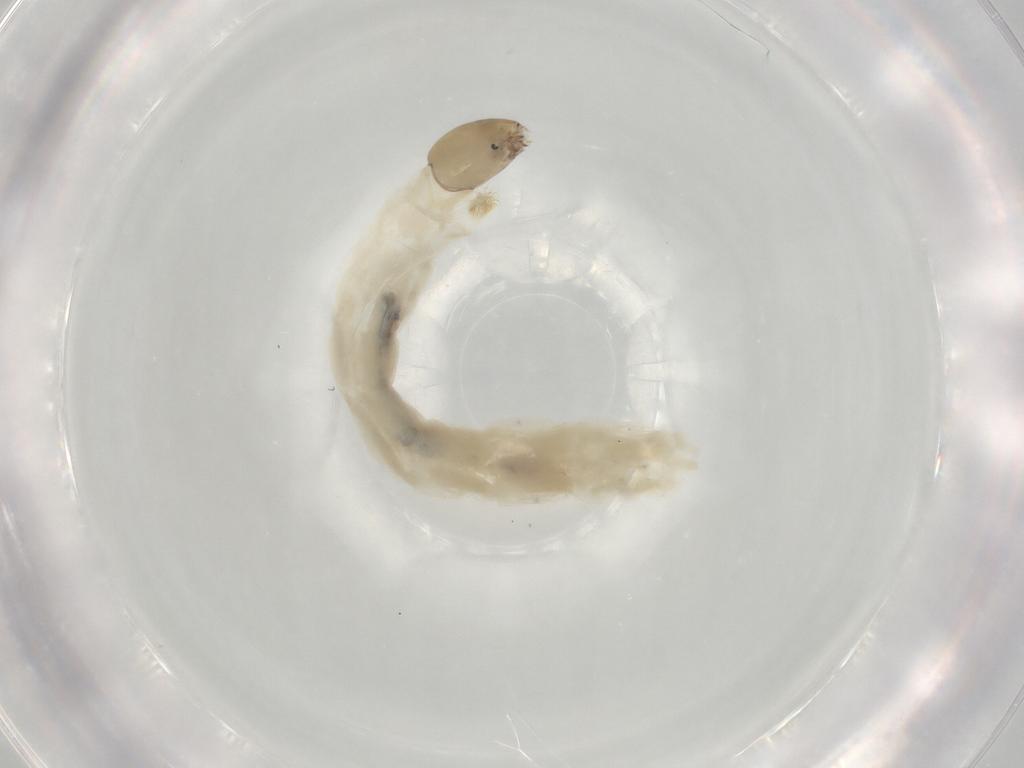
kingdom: Animalia
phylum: Arthropoda
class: Insecta
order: Diptera
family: Chironomidae
